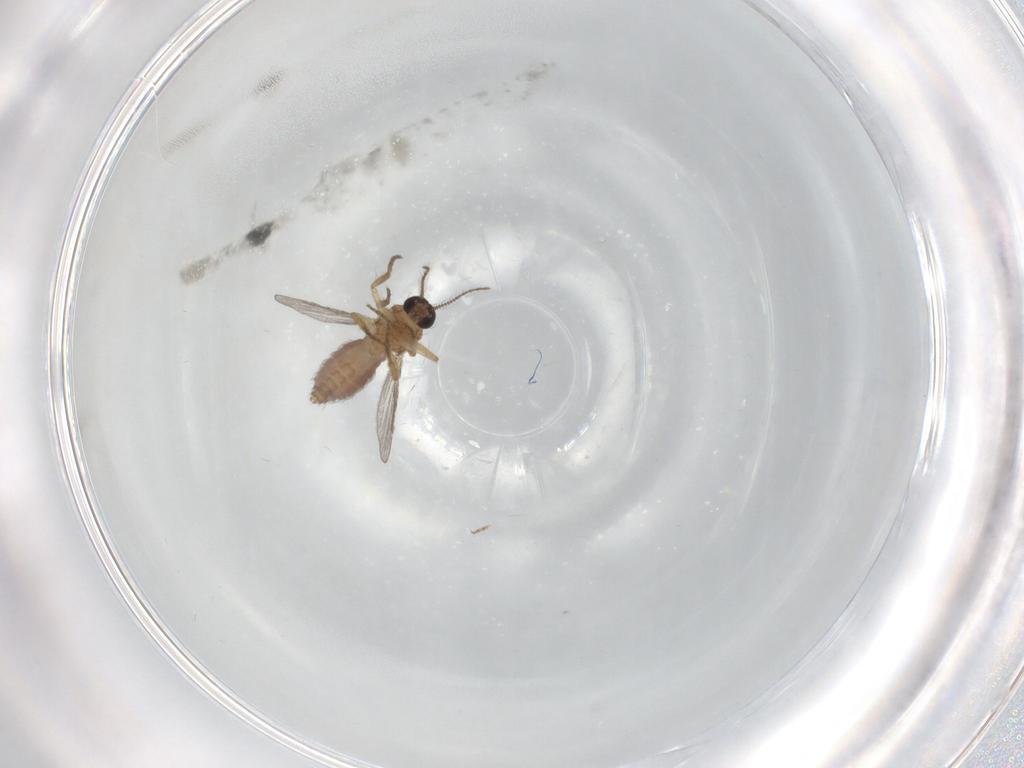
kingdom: Animalia
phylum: Arthropoda
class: Insecta
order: Diptera
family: Ceratopogonidae
